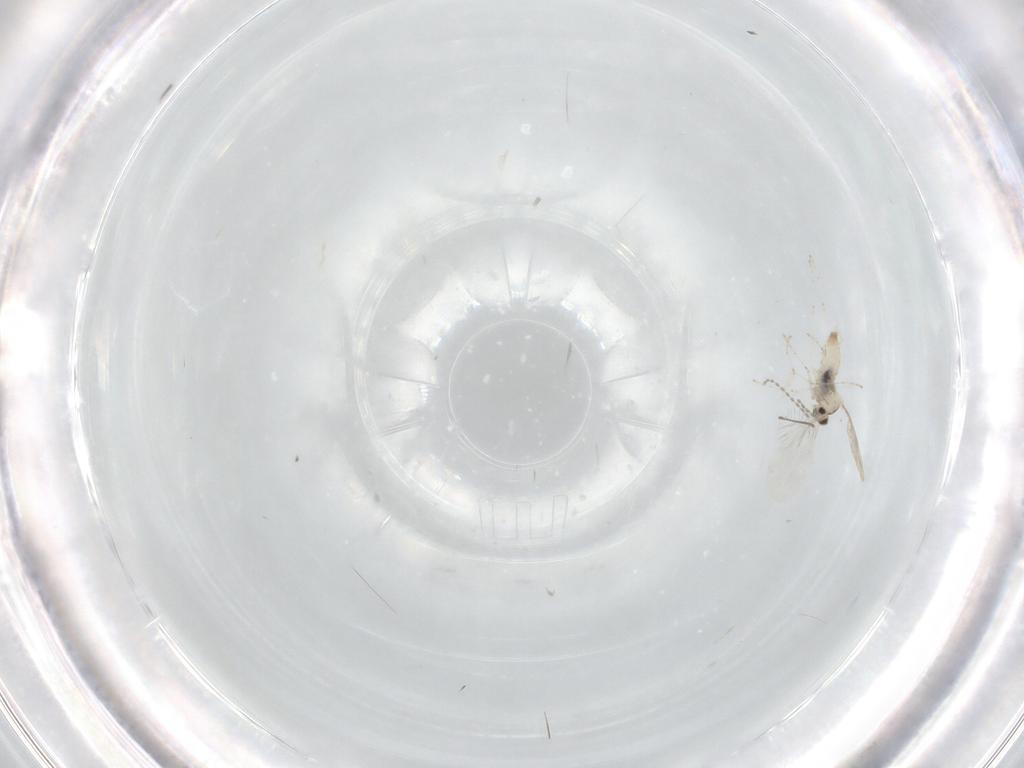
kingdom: Animalia
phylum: Arthropoda
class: Insecta
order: Diptera
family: Cecidomyiidae
